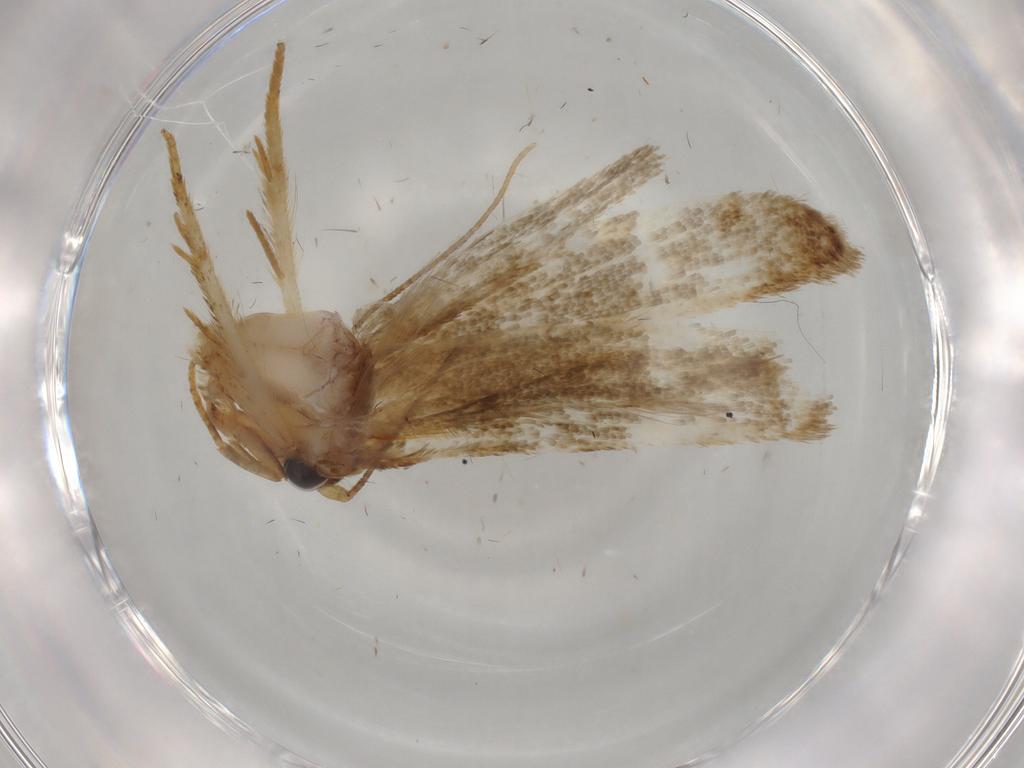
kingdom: Animalia
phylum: Arthropoda
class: Insecta
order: Lepidoptera
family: Blastobasidae
